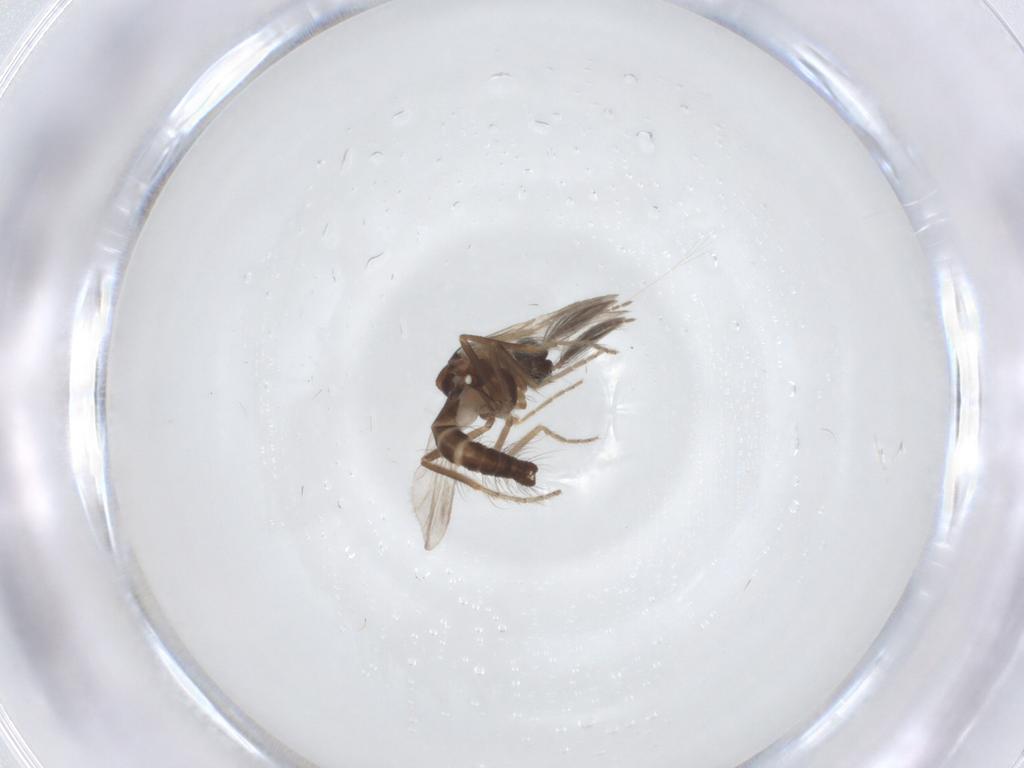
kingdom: Animalia
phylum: Arthropoda
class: Insecta
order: Diptera
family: Ceratopogonidae
